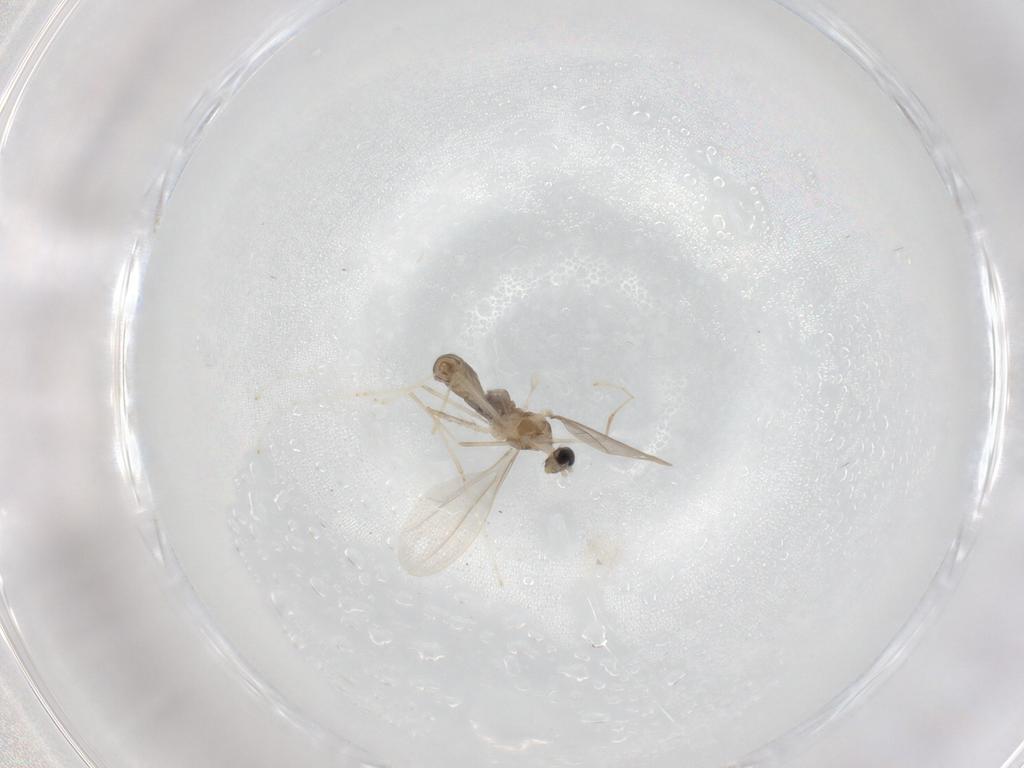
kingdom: Animalia
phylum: Arthropoda
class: Insecta
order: Diptera
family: Cecidomyiidae
